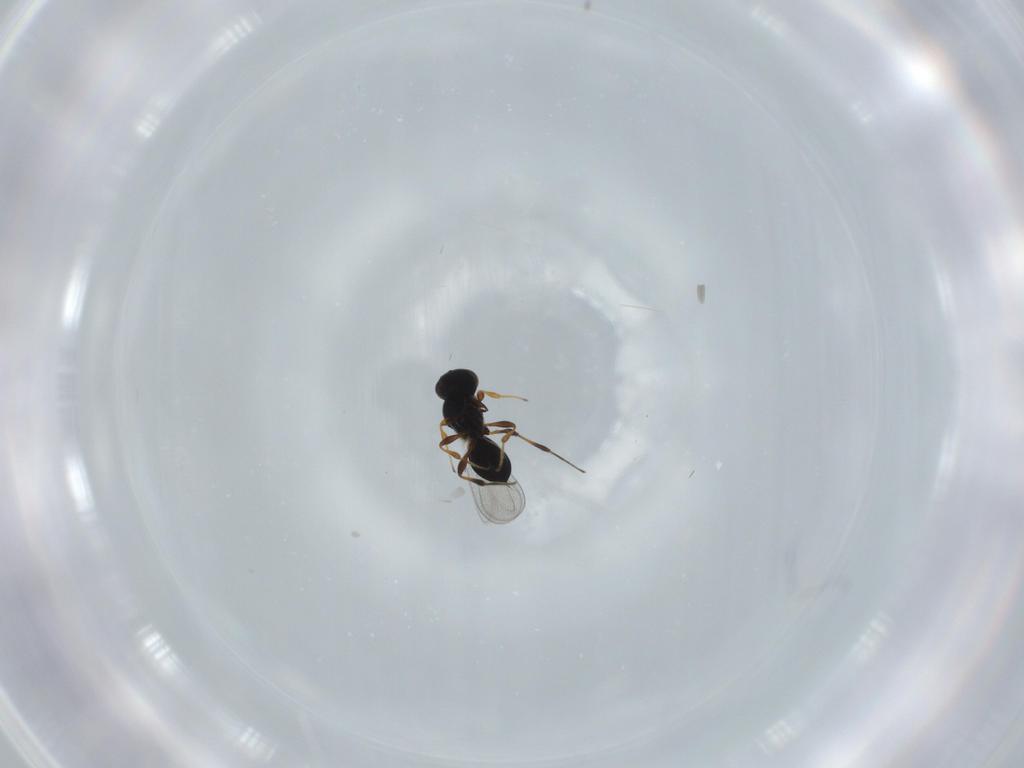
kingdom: Animalia
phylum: Arthropoda
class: Insecta
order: Hymenoptera
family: Platygastridae
